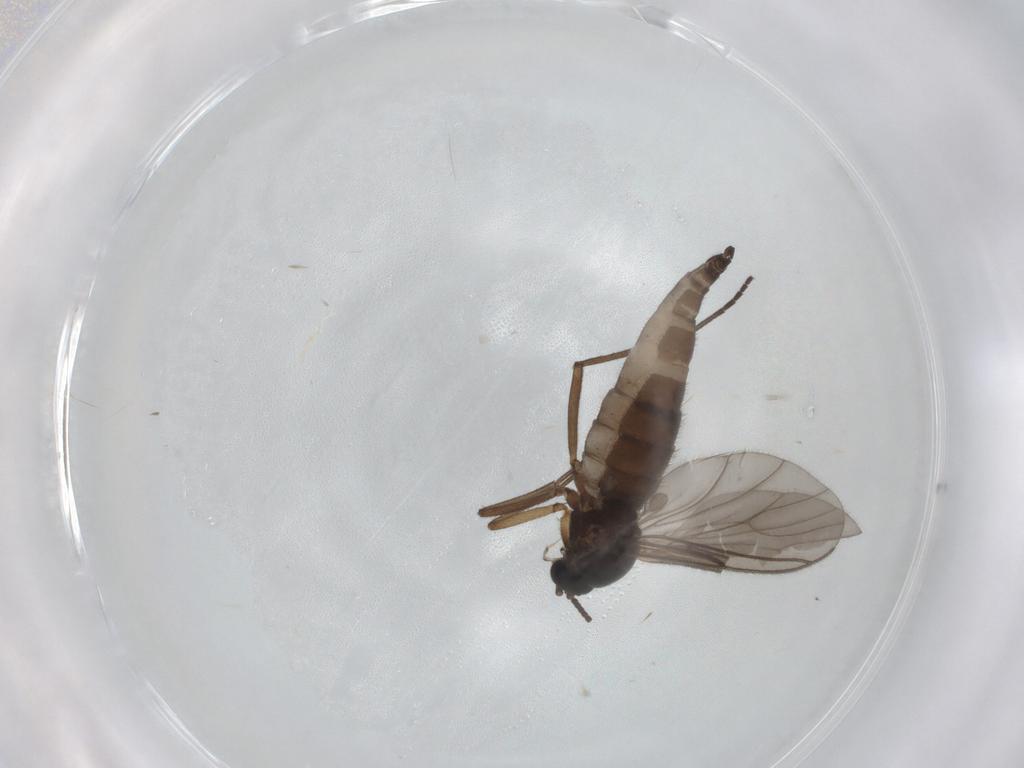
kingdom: Animalia
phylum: Arthropoda
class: Insecta
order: Diptera
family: Sciaridae
